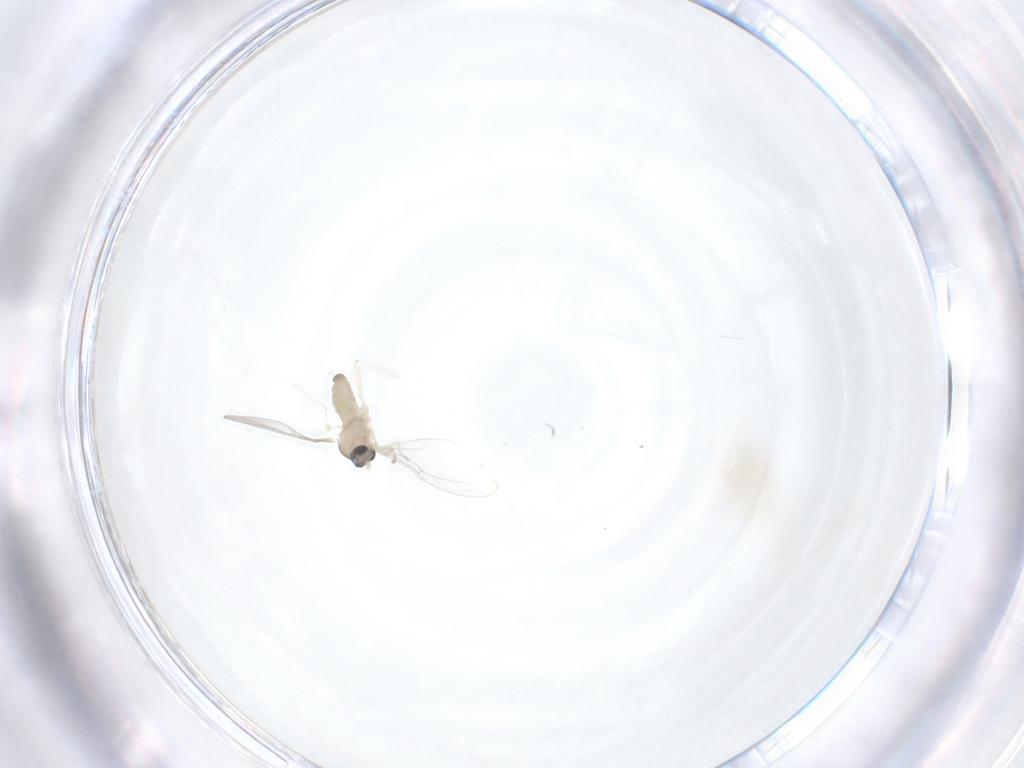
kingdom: Animalia
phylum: Arthropoda
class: Insecta
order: Diptera
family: Cecidomyiidae
